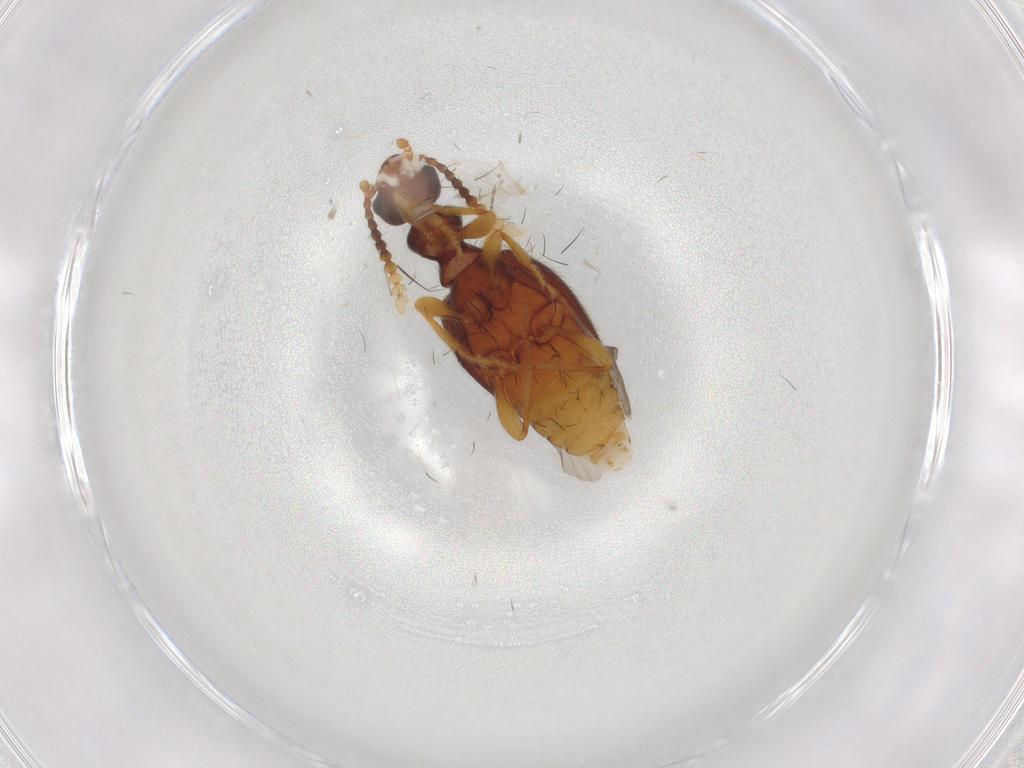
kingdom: Animalia
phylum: Arthropoda
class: Insecta
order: Coleoptera
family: Anthicidae
